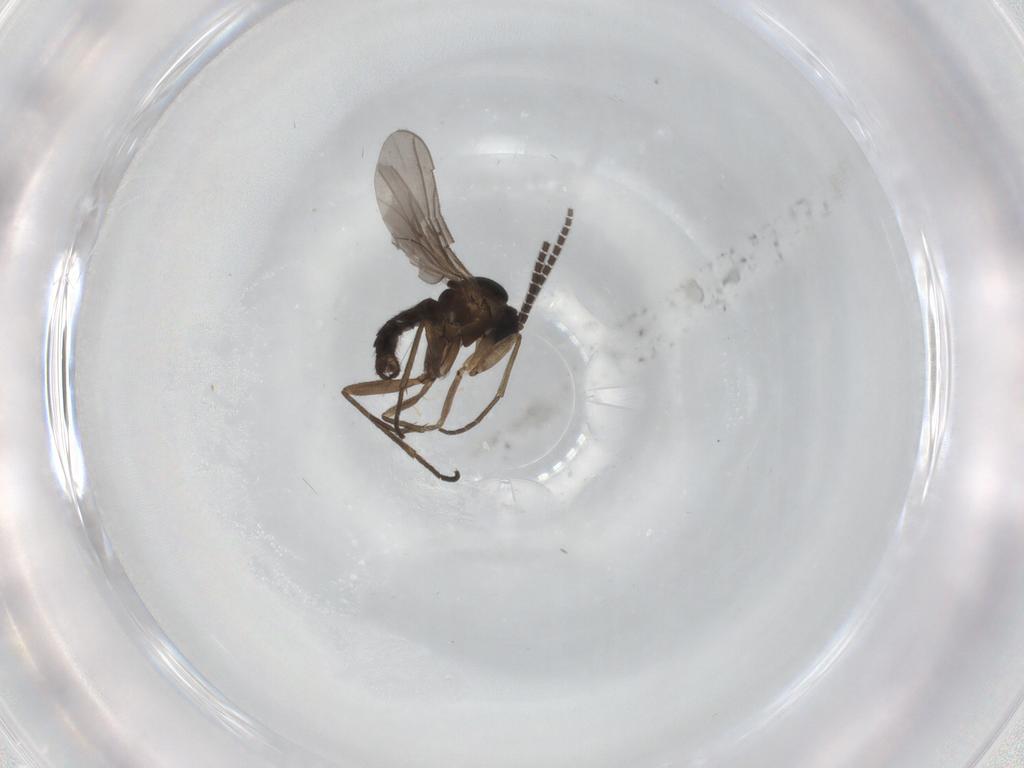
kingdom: Animalia
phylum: Arthropoda
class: Insecta
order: Diptera
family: Sciaridae
